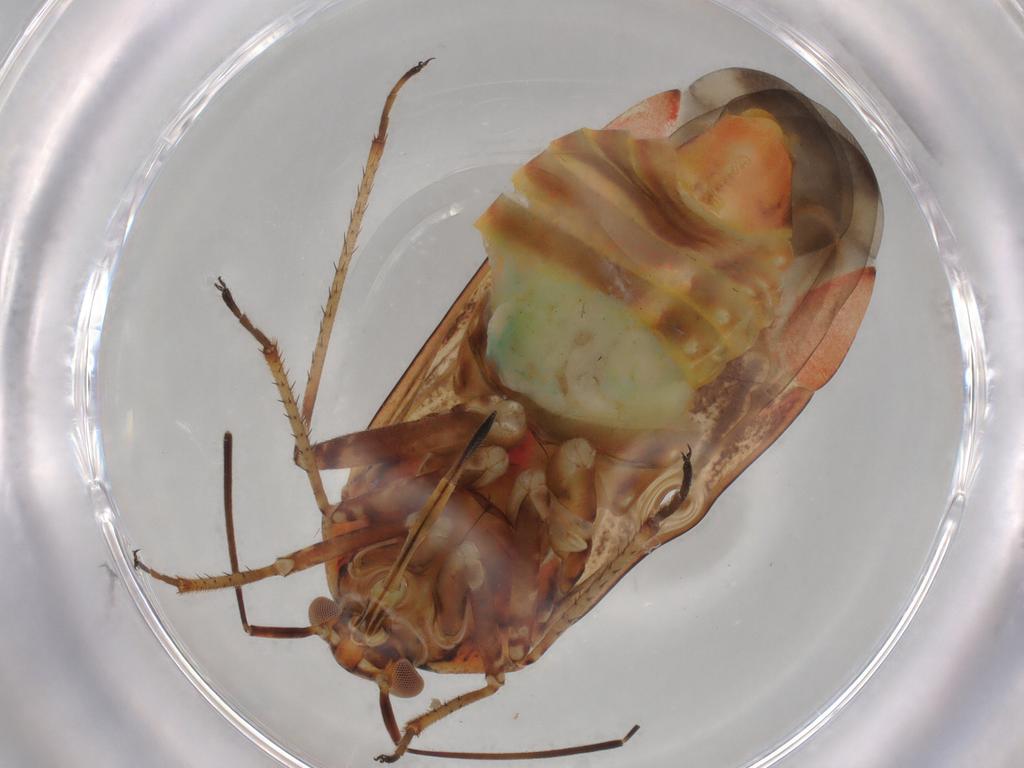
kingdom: Animalia
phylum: Arthropoda
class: Insecta
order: Hemiptera
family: Miridae
